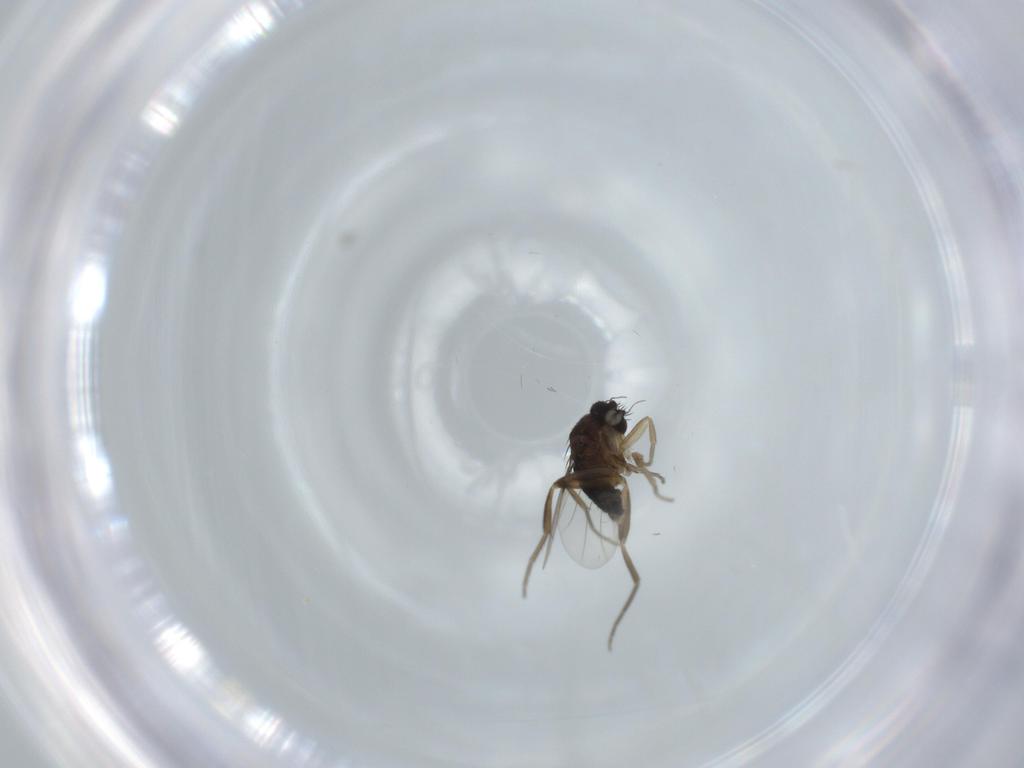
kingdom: Animalia
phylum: Arthropoda
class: Insecta
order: Diptera
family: Phoridae
